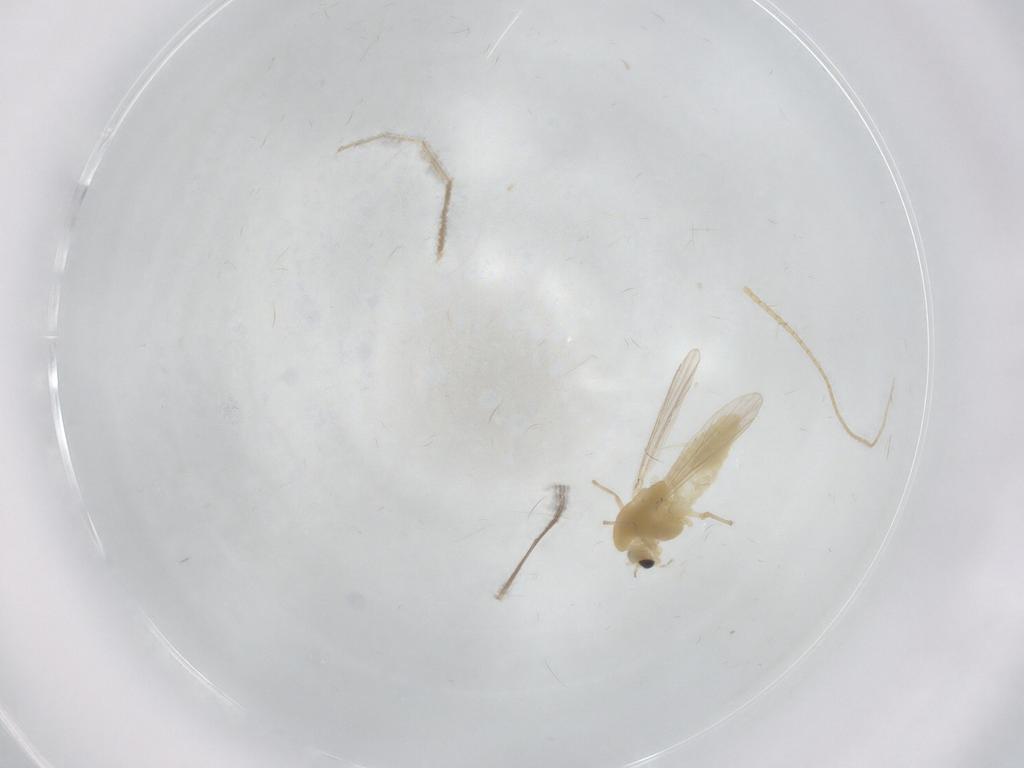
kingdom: Animalia
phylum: Arthropoda
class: Insecta
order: Diptera
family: Chironomidae
